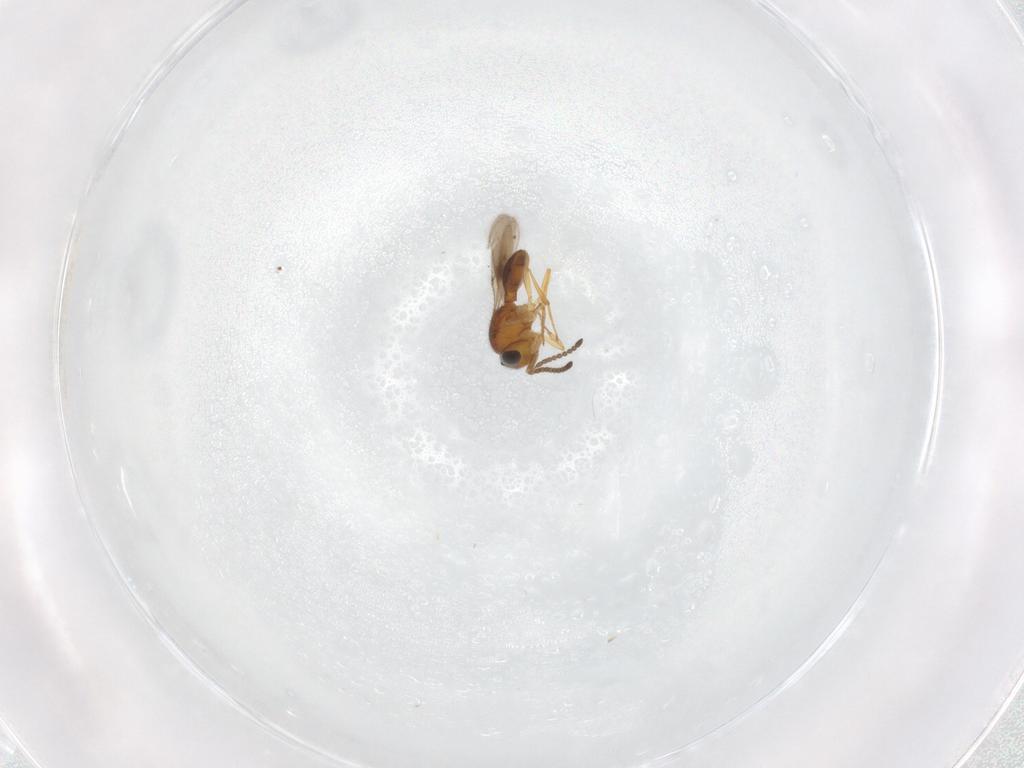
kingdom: Animalia
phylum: Arthropoda
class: Insecta
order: Hymenoptera
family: Scelionidae
